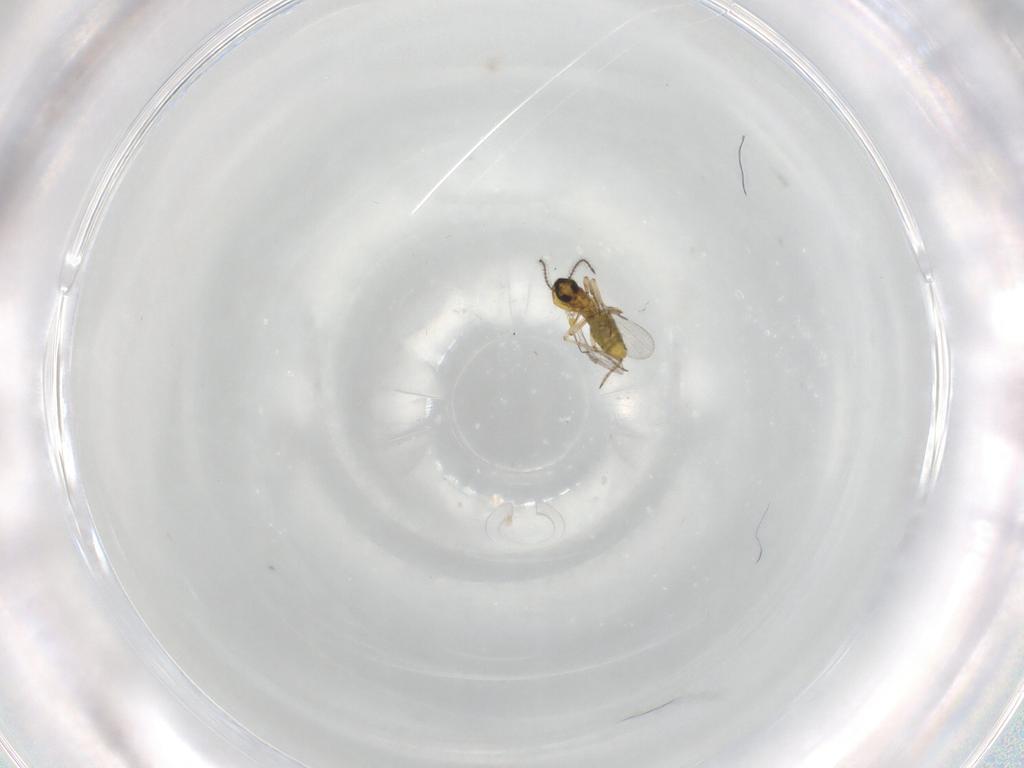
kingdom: Animalia
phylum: Arthropoda
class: Insecta
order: Diptera
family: Ceratopogonidae
